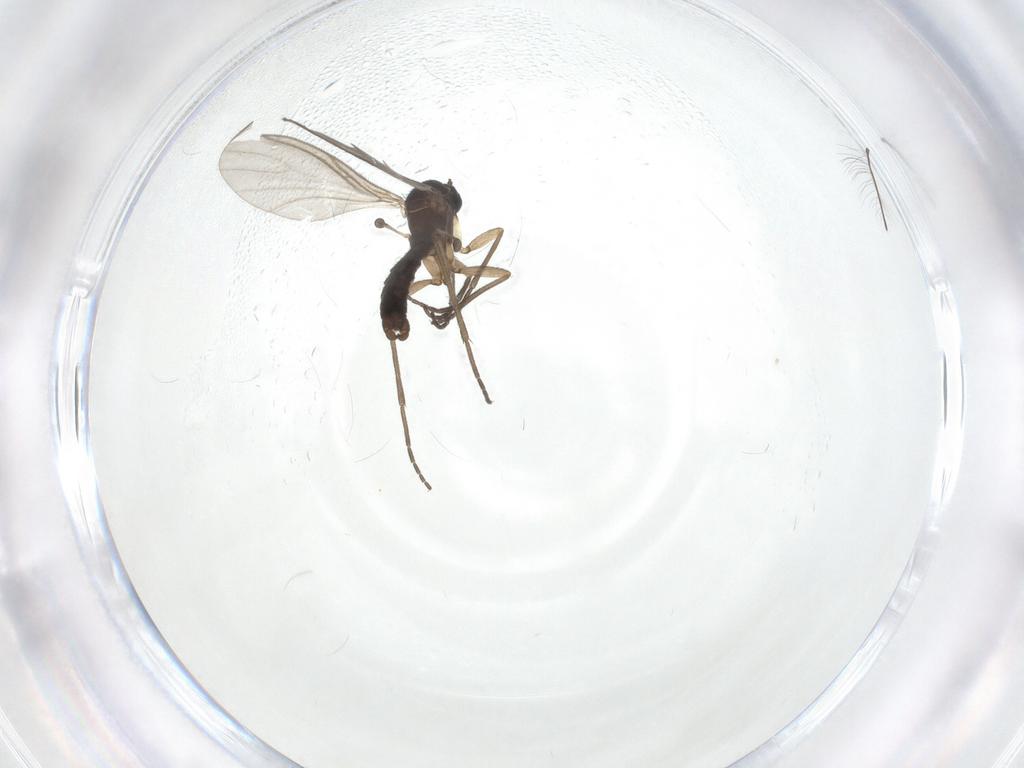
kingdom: Animalia
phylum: Arthropoda
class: Insecta
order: Diptera
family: Sciaridae
